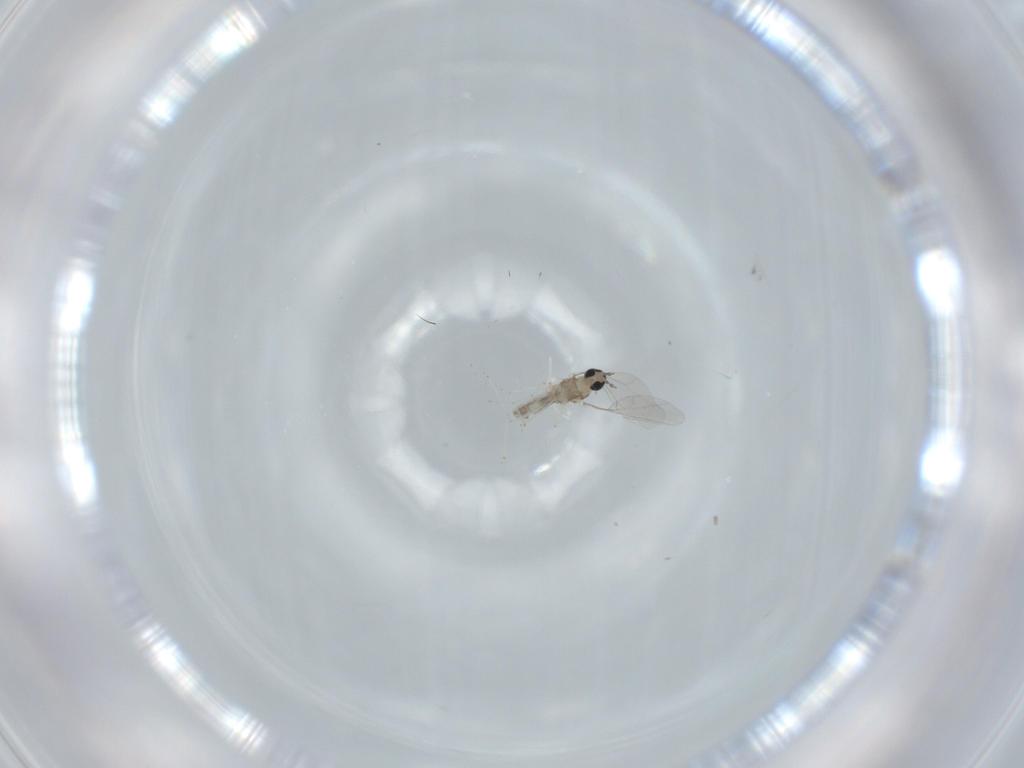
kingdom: Animalia
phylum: Arthropoda
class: Insecta
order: Diptera
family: Cecidomyiidae
